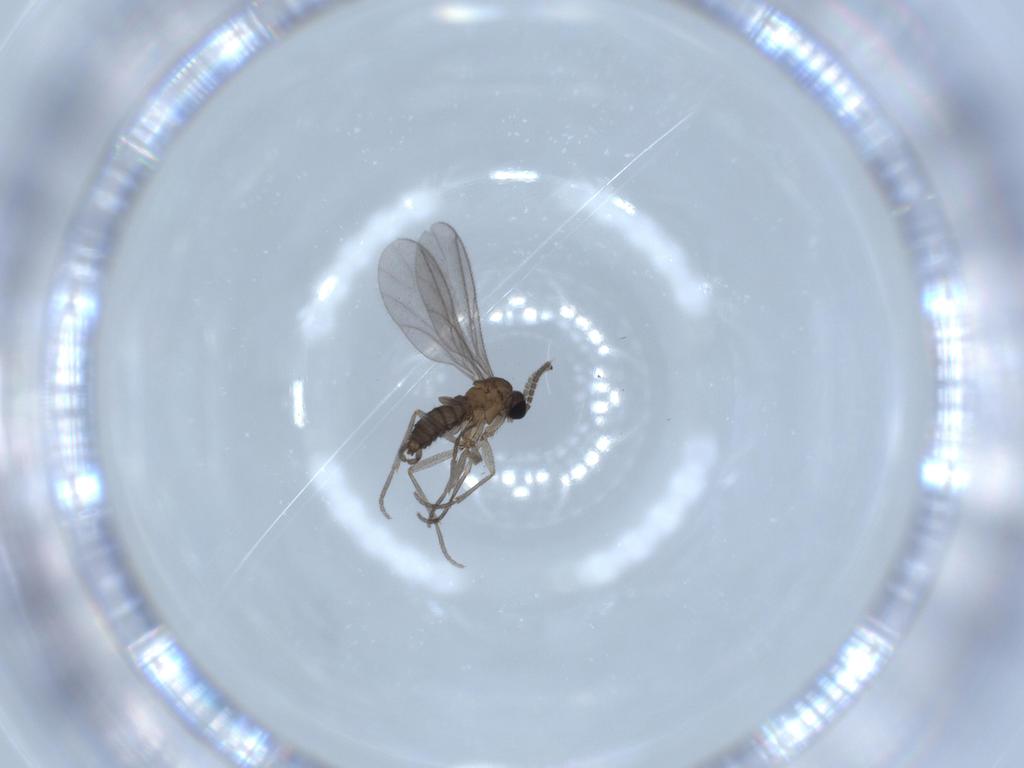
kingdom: Animalia
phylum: Arthropoda
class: Insecta
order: Diptera
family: Sciaridae
